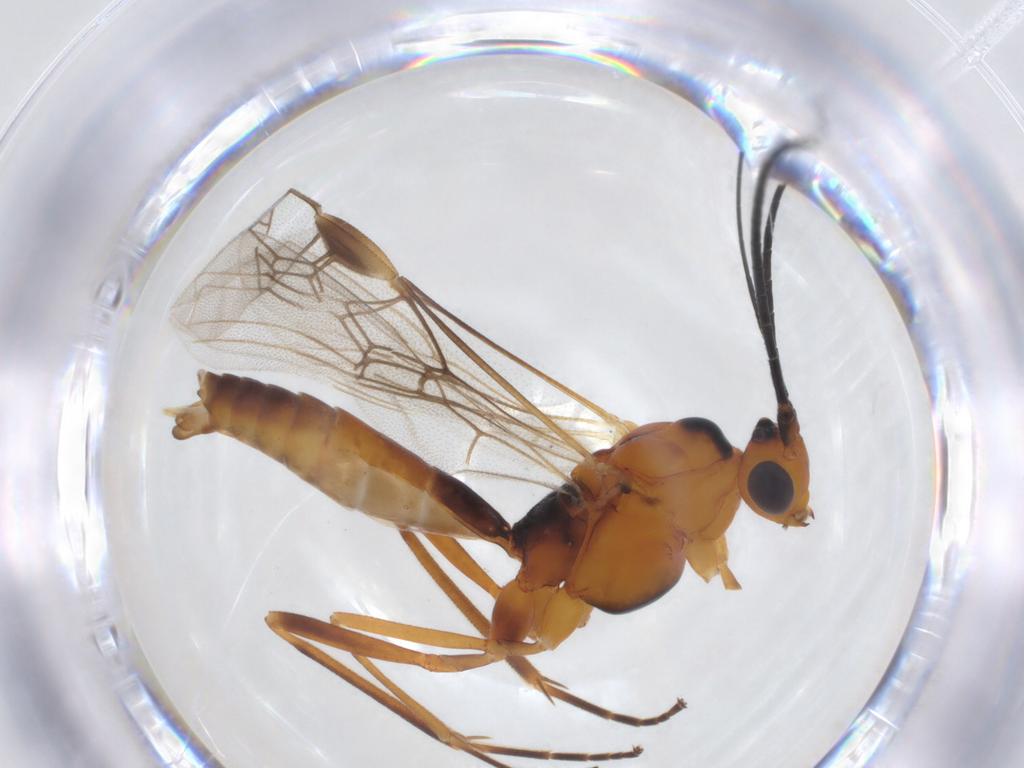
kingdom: Animalia
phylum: Arthropoda
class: Insecta
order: Hymenoptera
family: Braconidae
